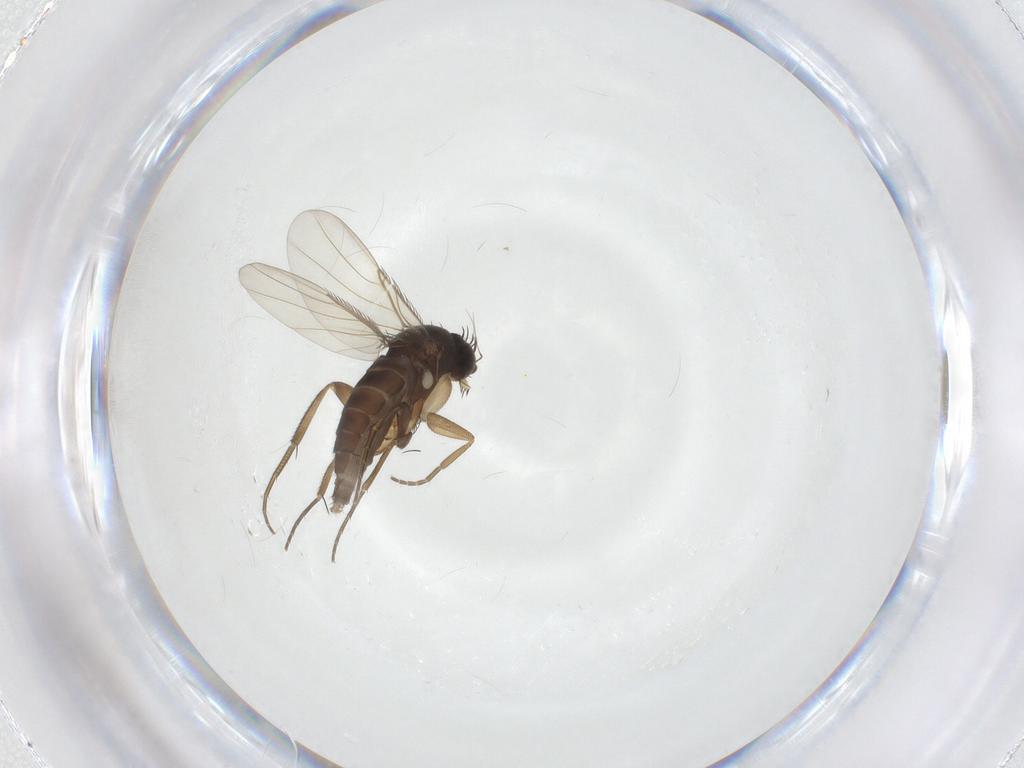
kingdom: Animalia
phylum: Arthropoda
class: Insecta
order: Diptera
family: Phoridae
